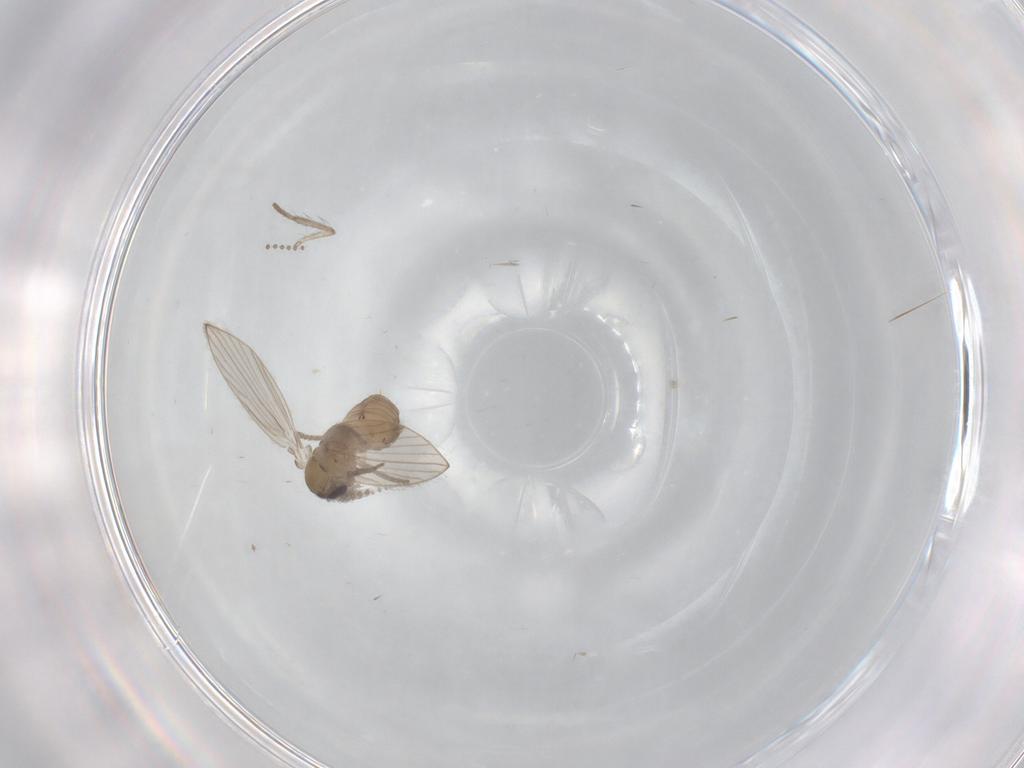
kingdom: Animalia
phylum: Arthropoda
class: Insecta
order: Diptera
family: Psychodidae
